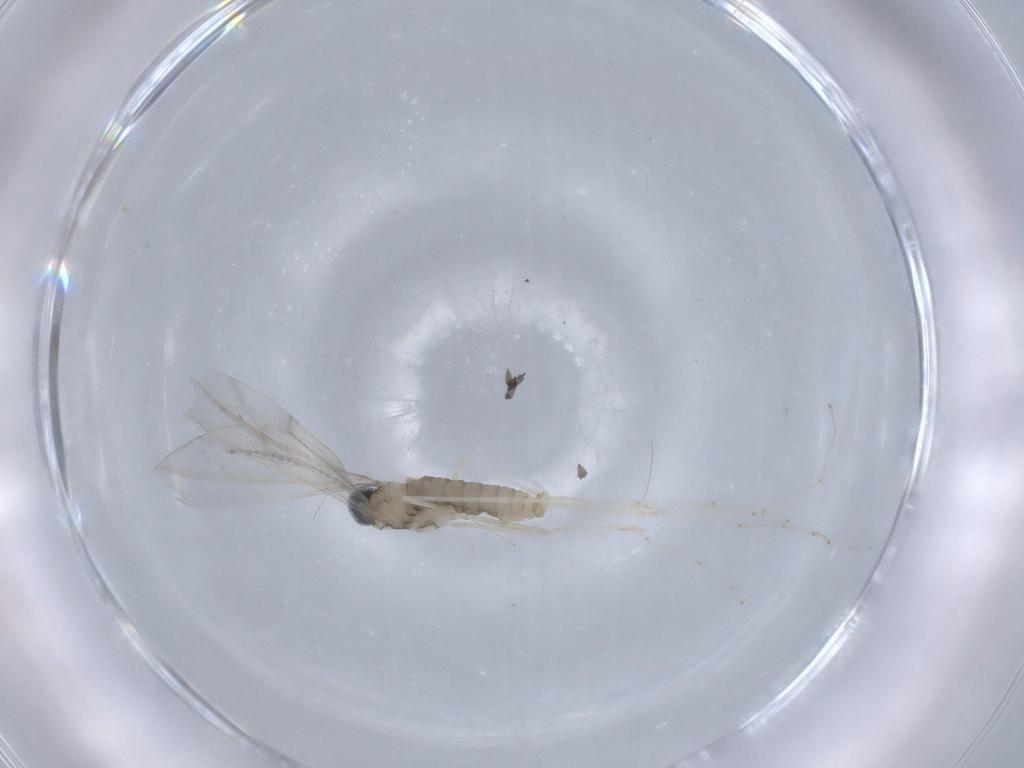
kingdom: Animalia
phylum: Arthropoda
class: Insecta
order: Diptera
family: Cecidomyiidae
